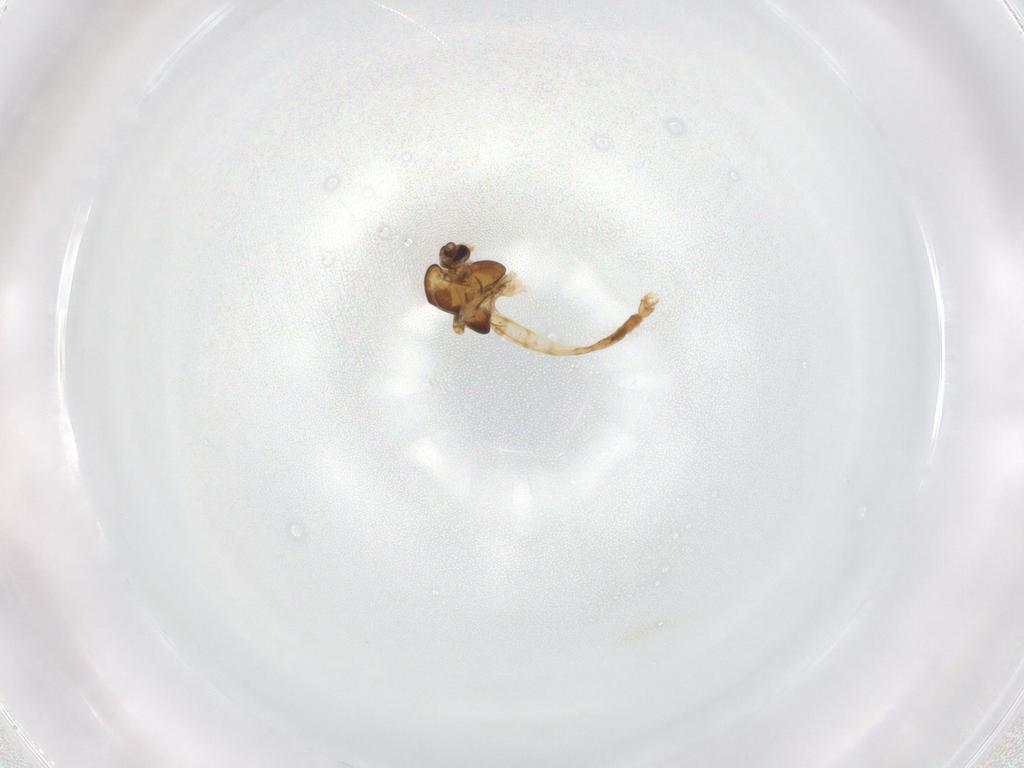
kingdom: Animalia
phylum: Arthropoda
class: Insecta
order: Diptera
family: Chironomidae
